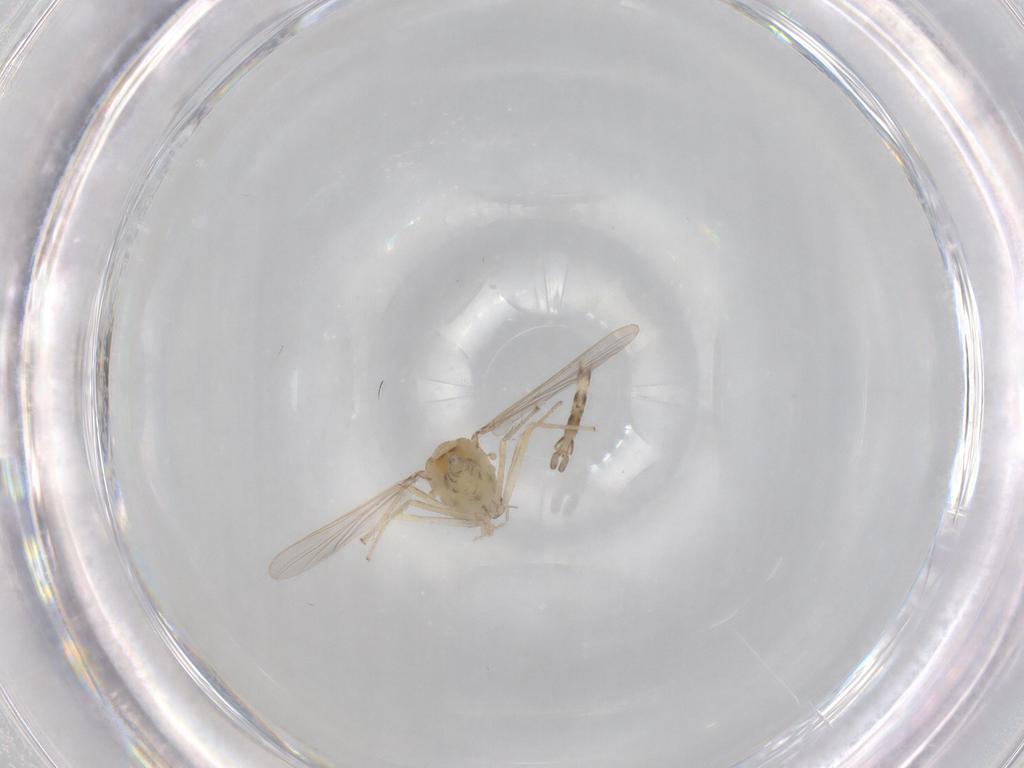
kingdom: Animalia
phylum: Arthropoda
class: Insecta
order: Diptera
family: Chironomidae
